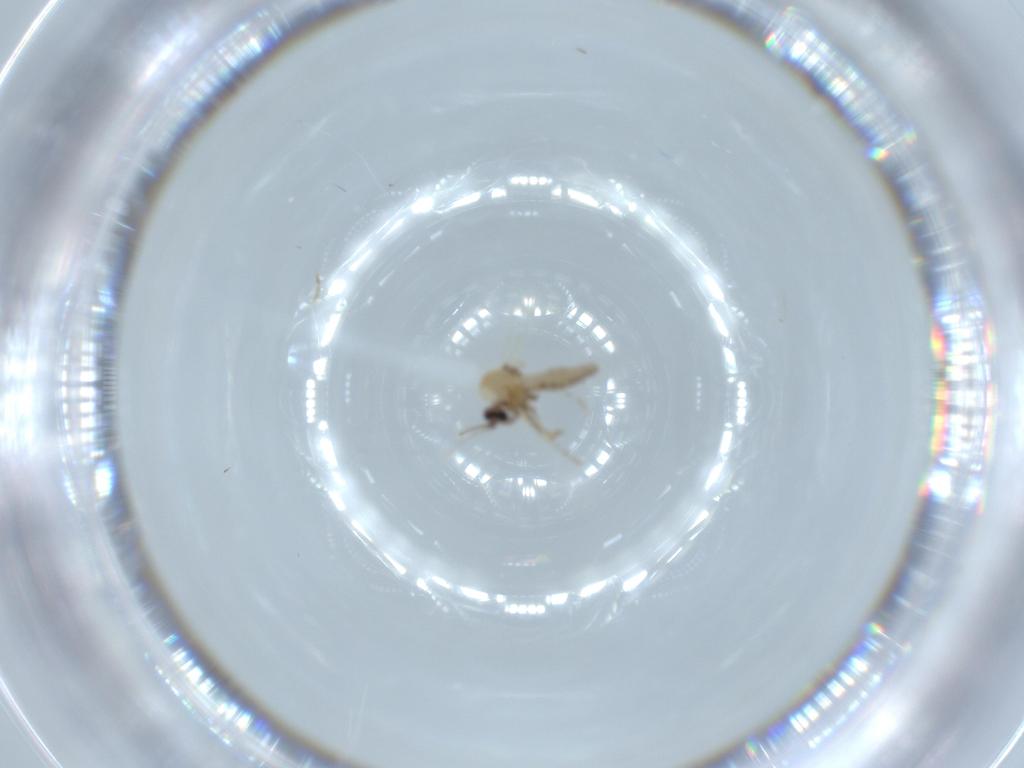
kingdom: Animalia
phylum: Arthropoda
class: Insecta
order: Diptera
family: Ceratopogonidae
